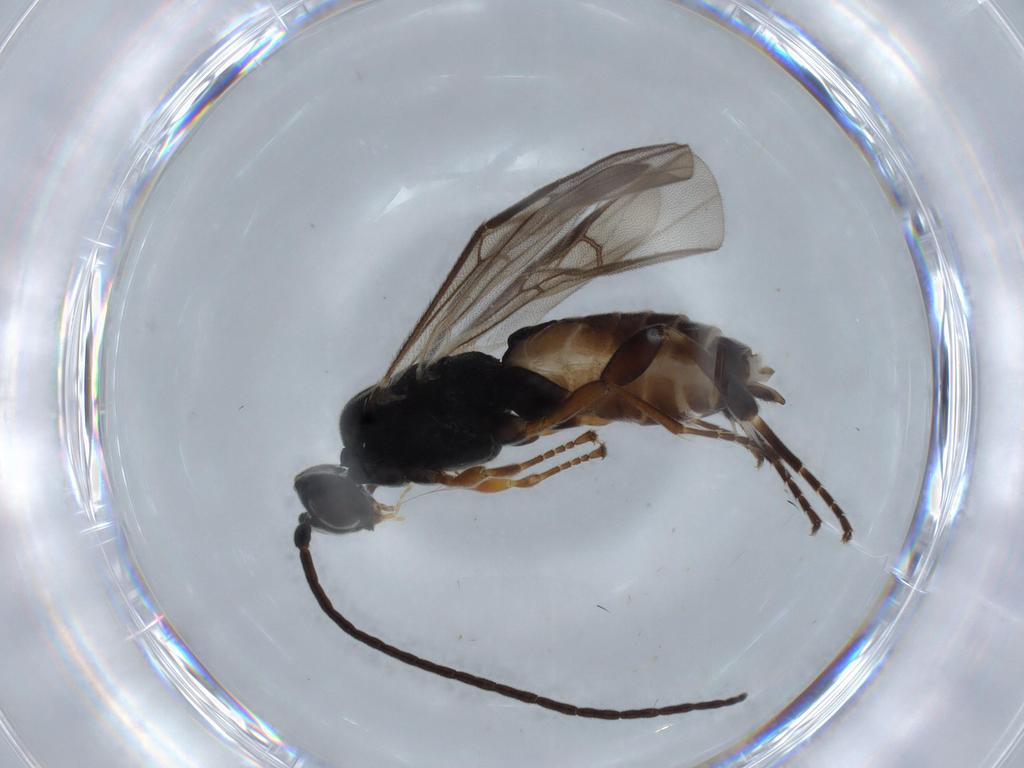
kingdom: Animalia
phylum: Arthropoda
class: Insecta
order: Hymenoptera
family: Braconidae
